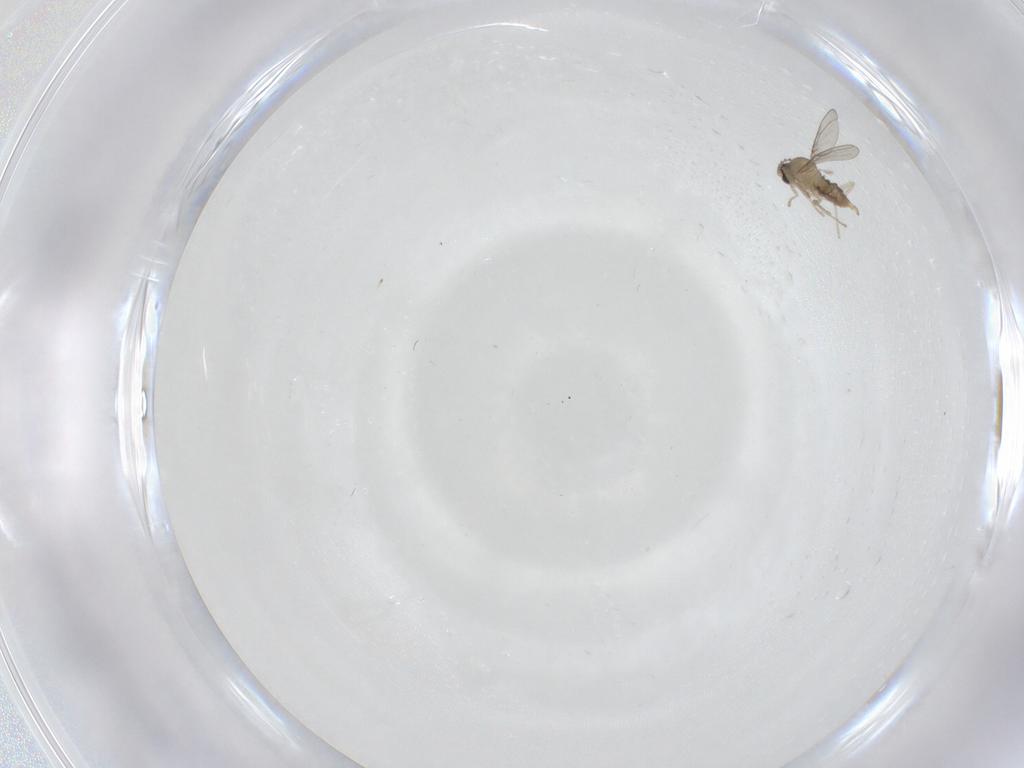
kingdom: Animalia
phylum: Arthropoda
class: Insecta
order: Diptera
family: Cecidomyiidae
